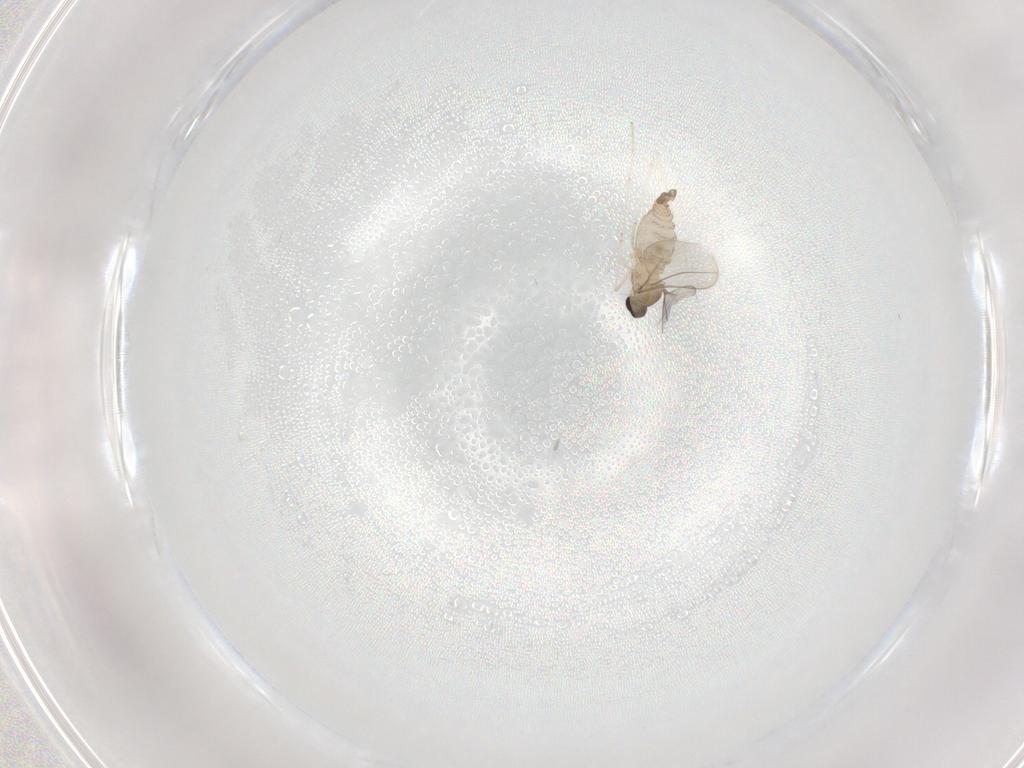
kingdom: Animalia
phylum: Arthropoda
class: Insecta
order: Diptera
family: Cecidomyiidae
